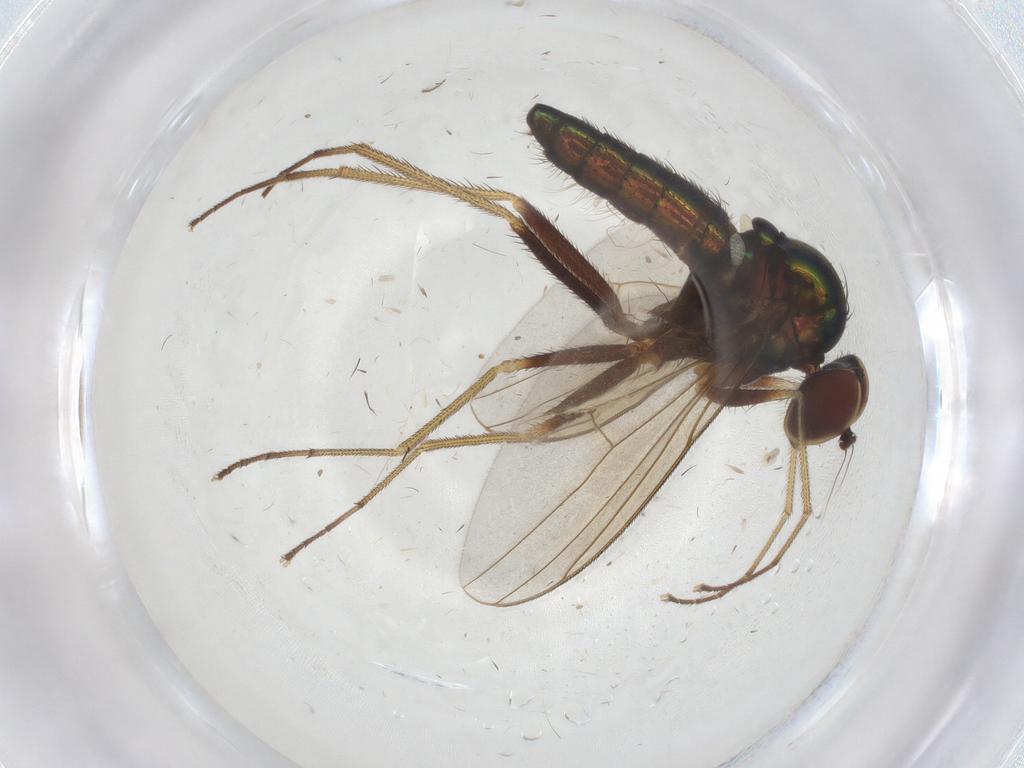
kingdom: Animalia
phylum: Arthropoda
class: Insecta
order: Diptera
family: Dolichopodidae
